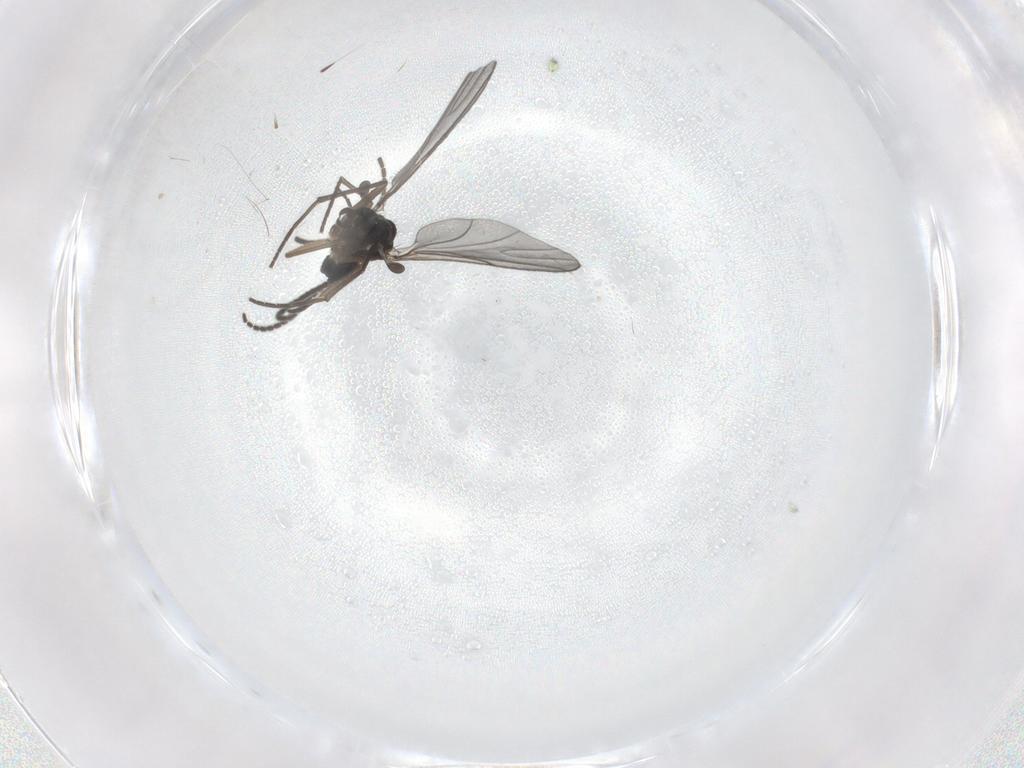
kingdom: Animalia
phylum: Arthropoda
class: Insecta
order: Diptera
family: Sciaridae
